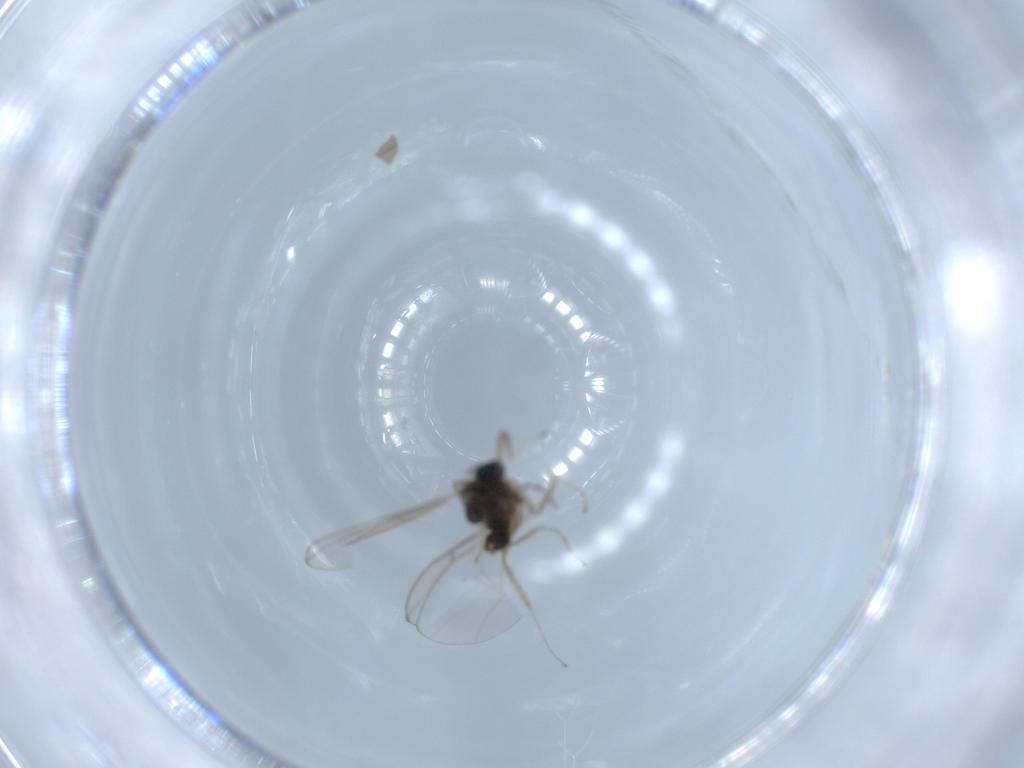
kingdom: Animalia
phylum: Arthropoda
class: Insecta
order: Diptera
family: Cecidomyiidae
